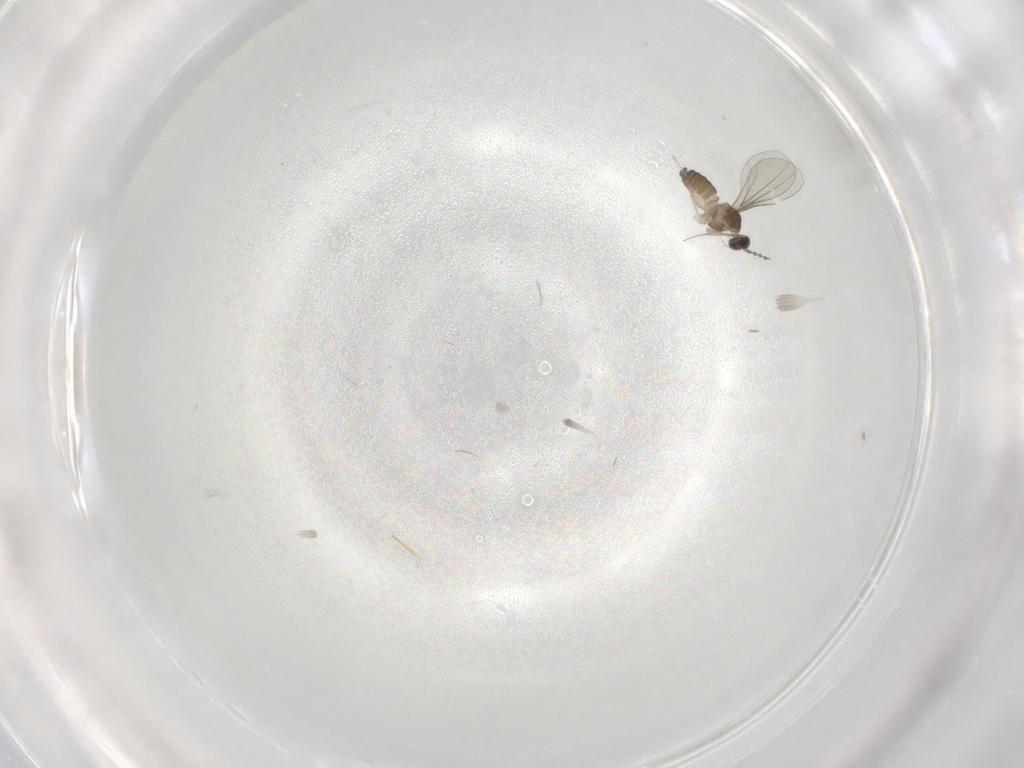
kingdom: Animalia
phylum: Arthropoda
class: Insecta
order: Diptera
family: Cecidomyiidae
